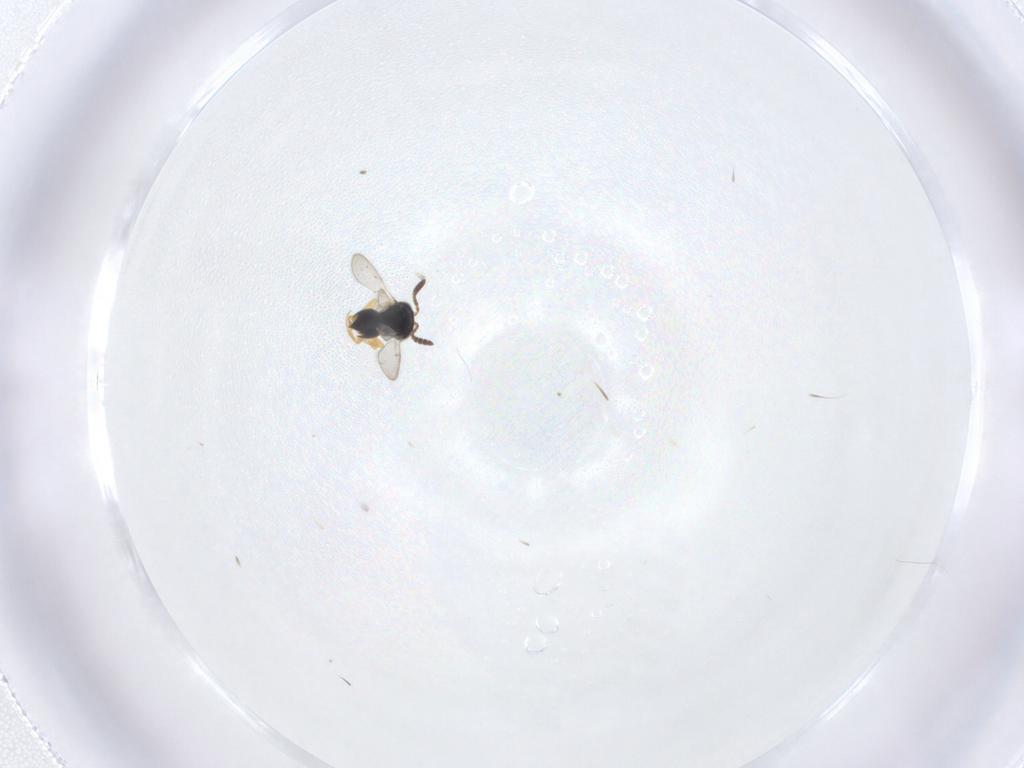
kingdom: Animalia
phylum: Arthropoda
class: Insecta
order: Hymenoptera
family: Scelionidae
